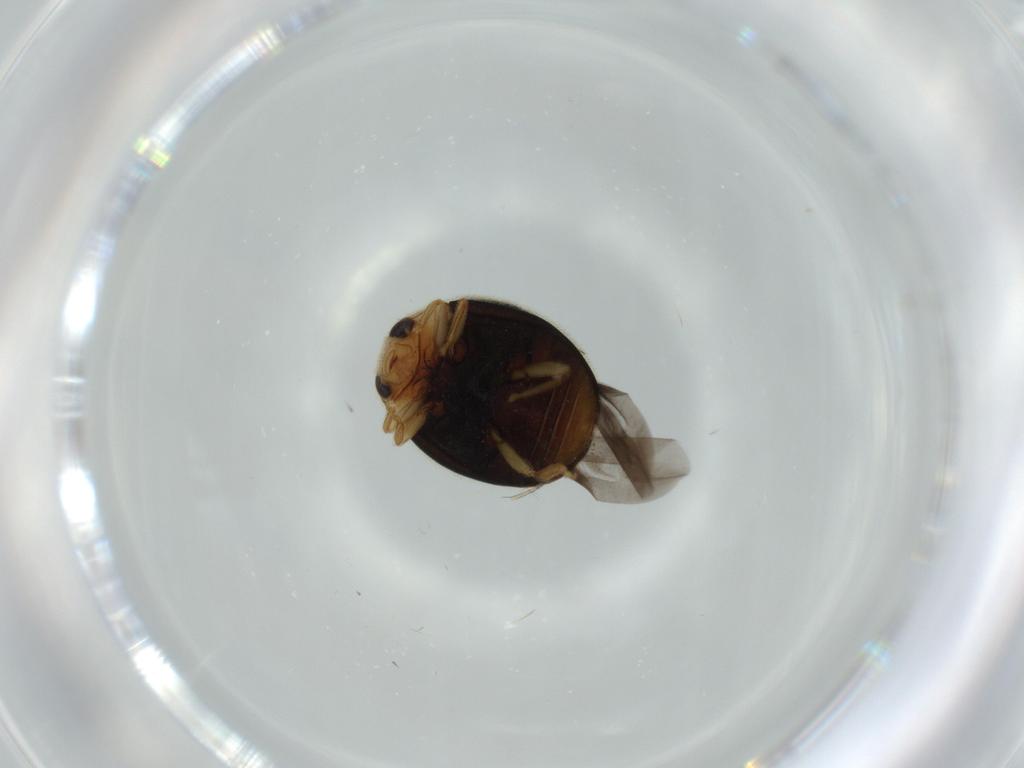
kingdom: Animalia
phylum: Arthropoda
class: Insecta
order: Coleoptera
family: Coccinellidae
